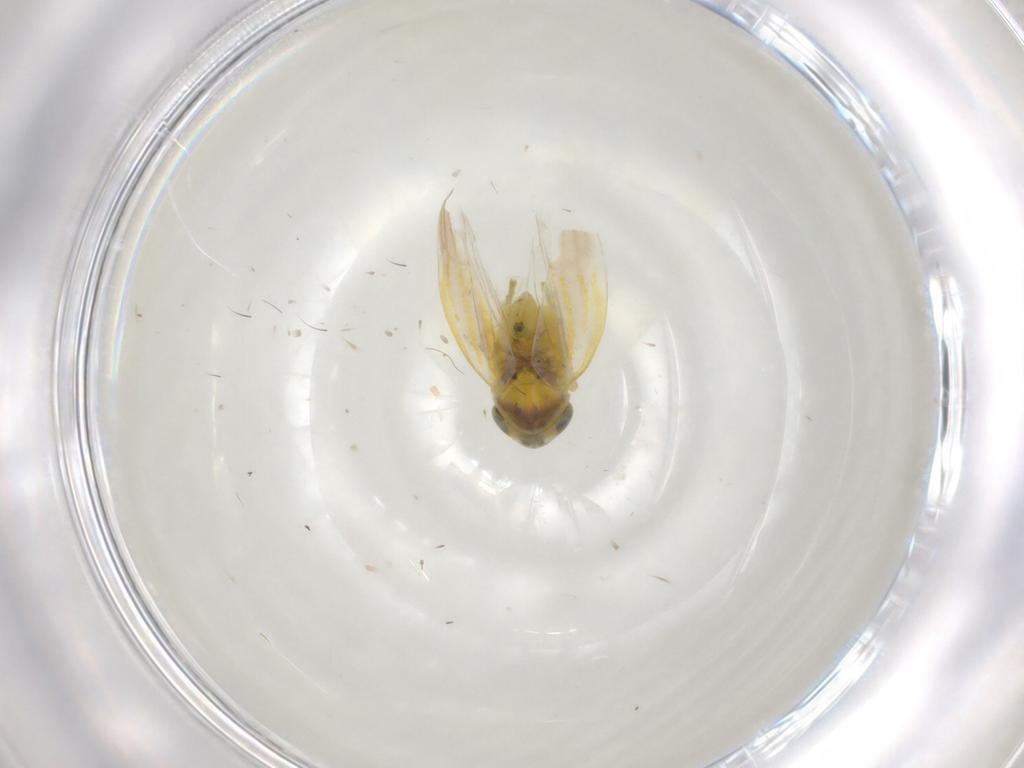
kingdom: Animalia
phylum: Arthropoda
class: Insecta
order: Hemiptera
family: Cicadellidae
